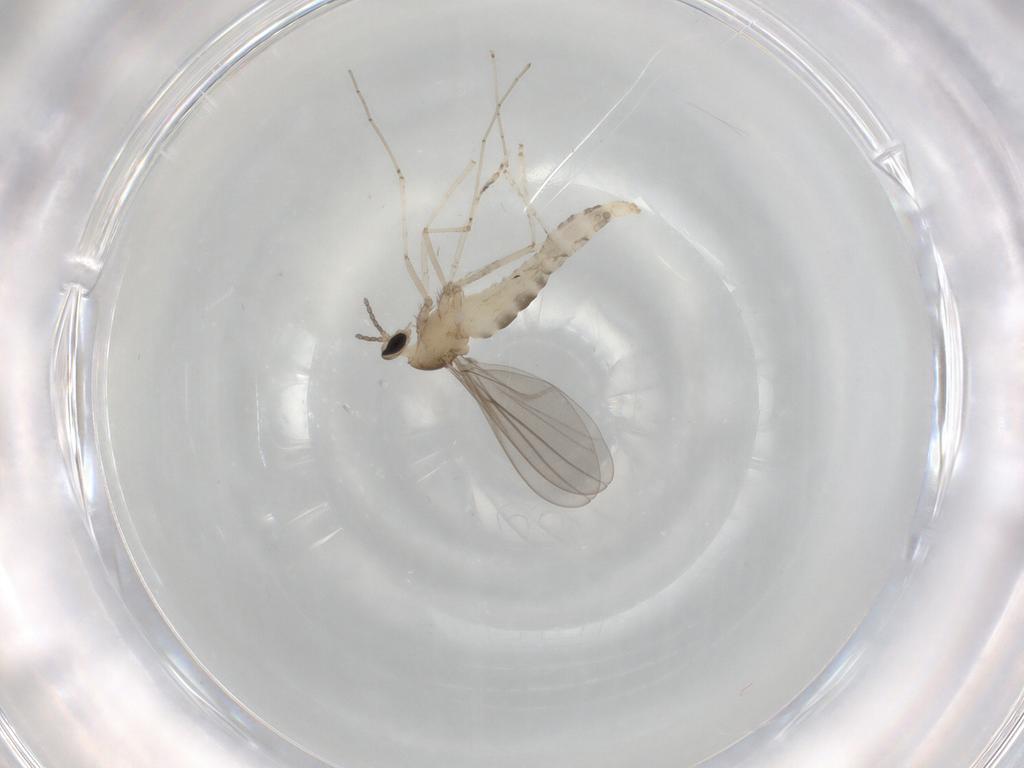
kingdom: Animalia
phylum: Arthropoda
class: Insecta
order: Diptera
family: Cecidomyiidae
